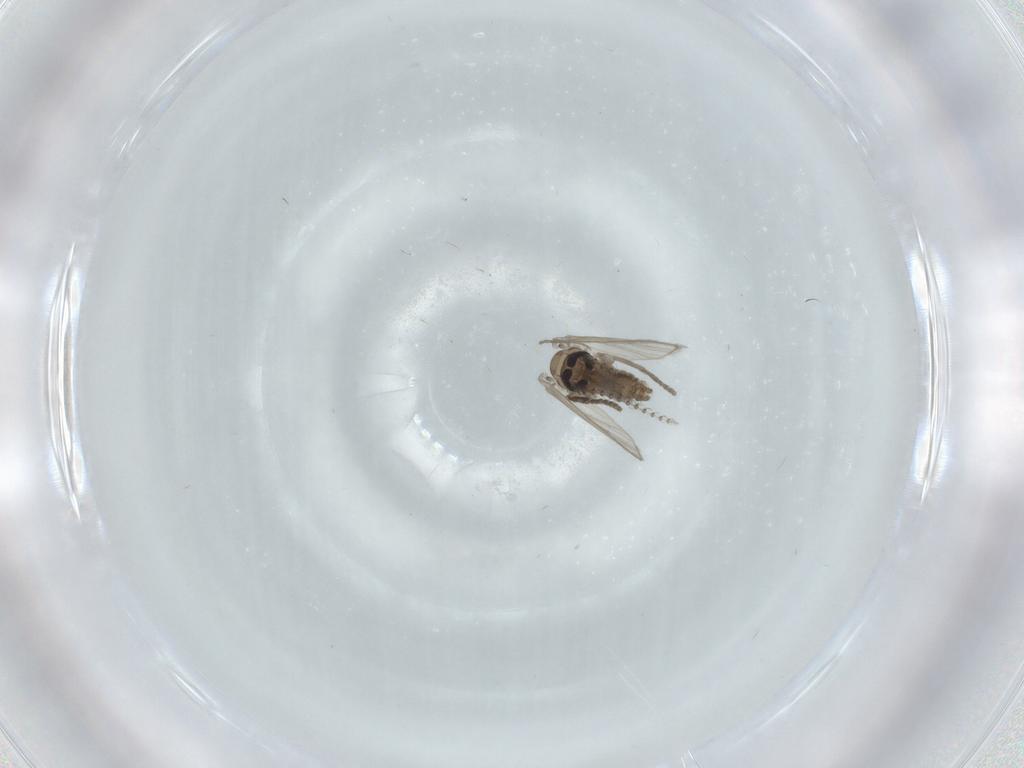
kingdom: Animalia
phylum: Arthropoda
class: Insecta
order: Diptera
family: Psychodidae
